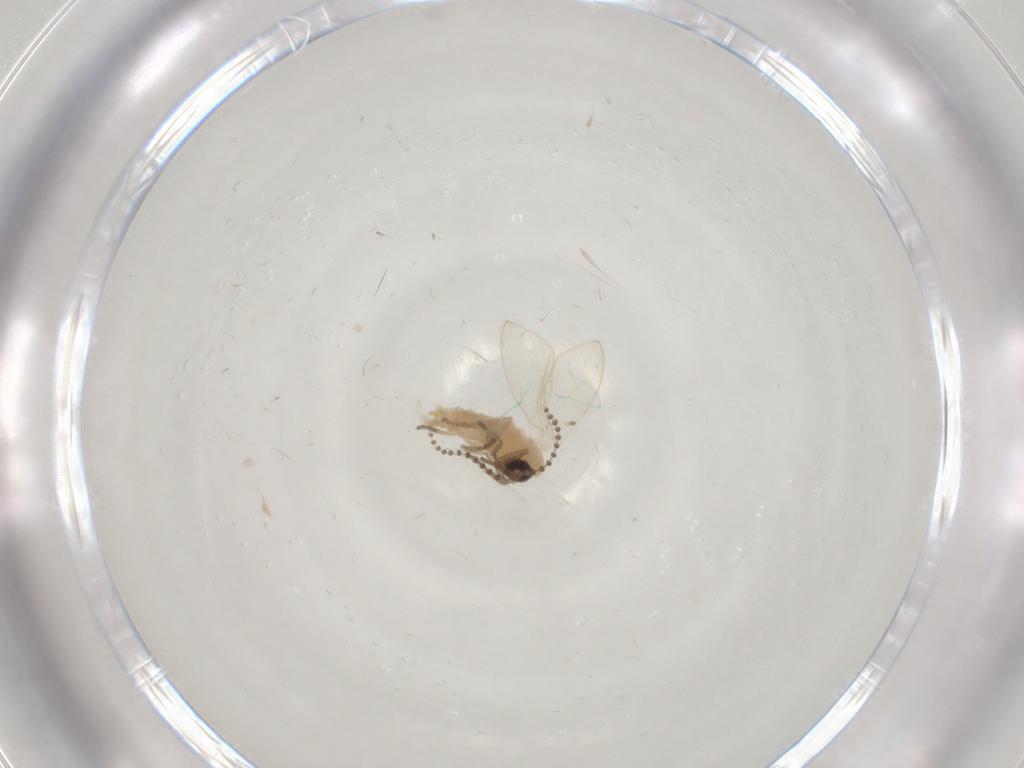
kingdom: Animalia
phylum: Arthropoda
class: Insecta
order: Diptera
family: Psychodidae
